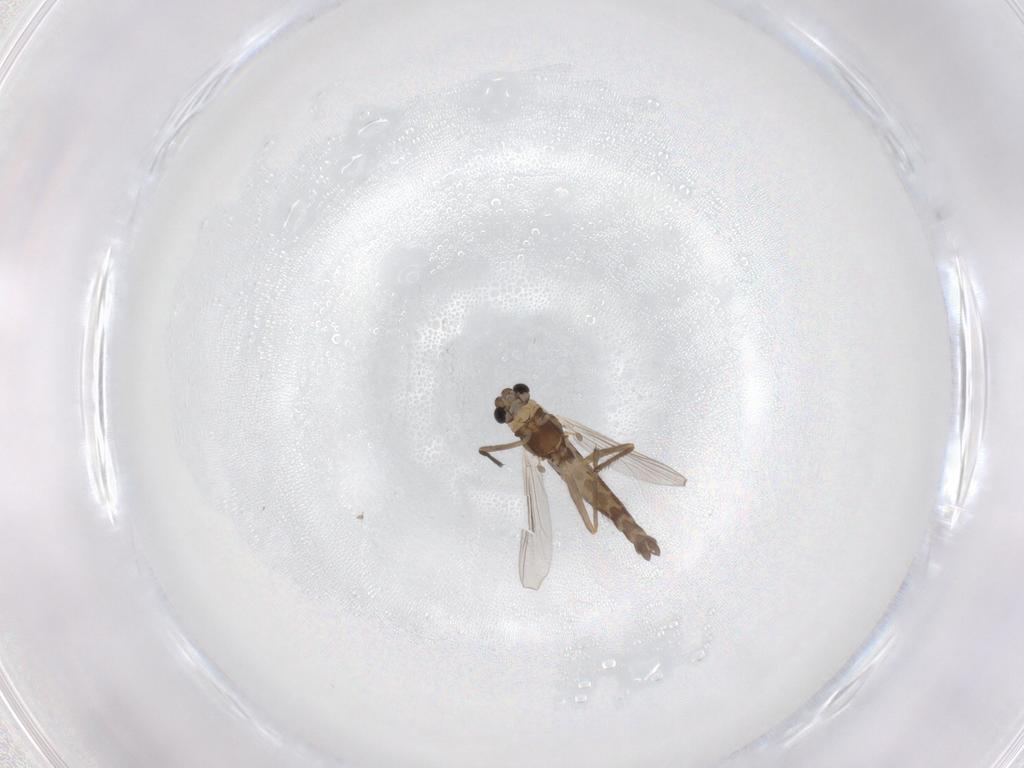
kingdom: Animalia
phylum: Arthropoda
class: Insecta
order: Diptera
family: Chironomidae
